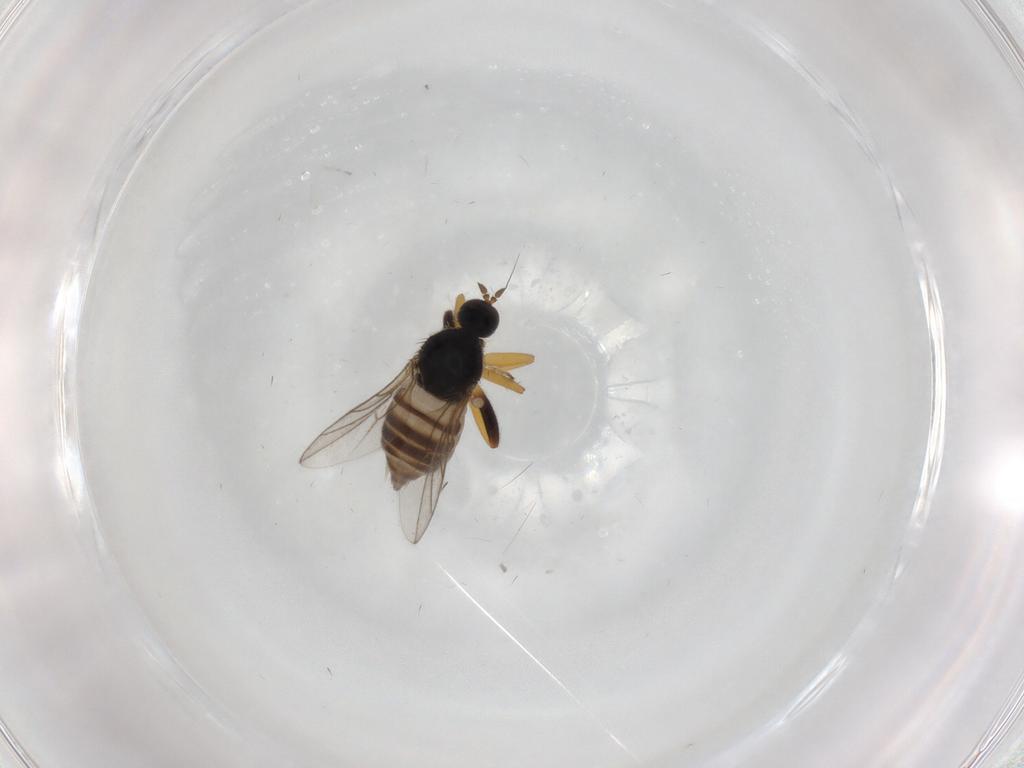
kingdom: Animalia
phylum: Arthropoda
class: Insecta
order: Diptera
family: Hybotidae
